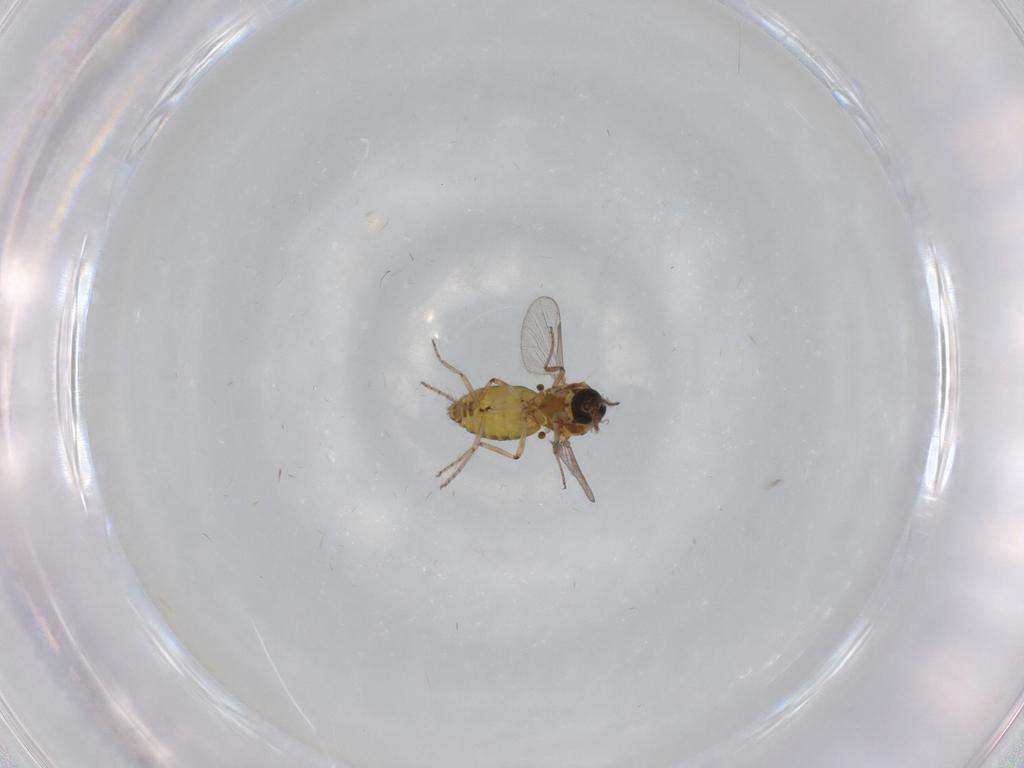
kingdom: Animalia
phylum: Arthropoda
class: Insecta
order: Diptera
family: Ceratopogonidae
